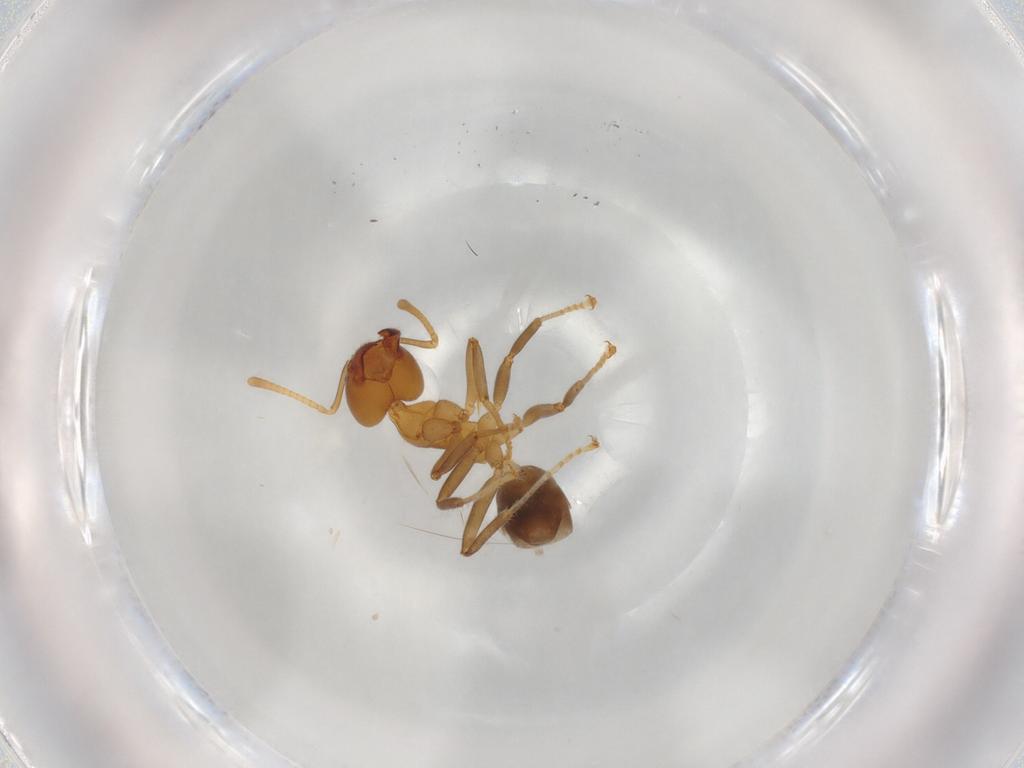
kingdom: Animalia
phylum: Arthropoda
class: Insecta
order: Hymenoptera
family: Formicidae
